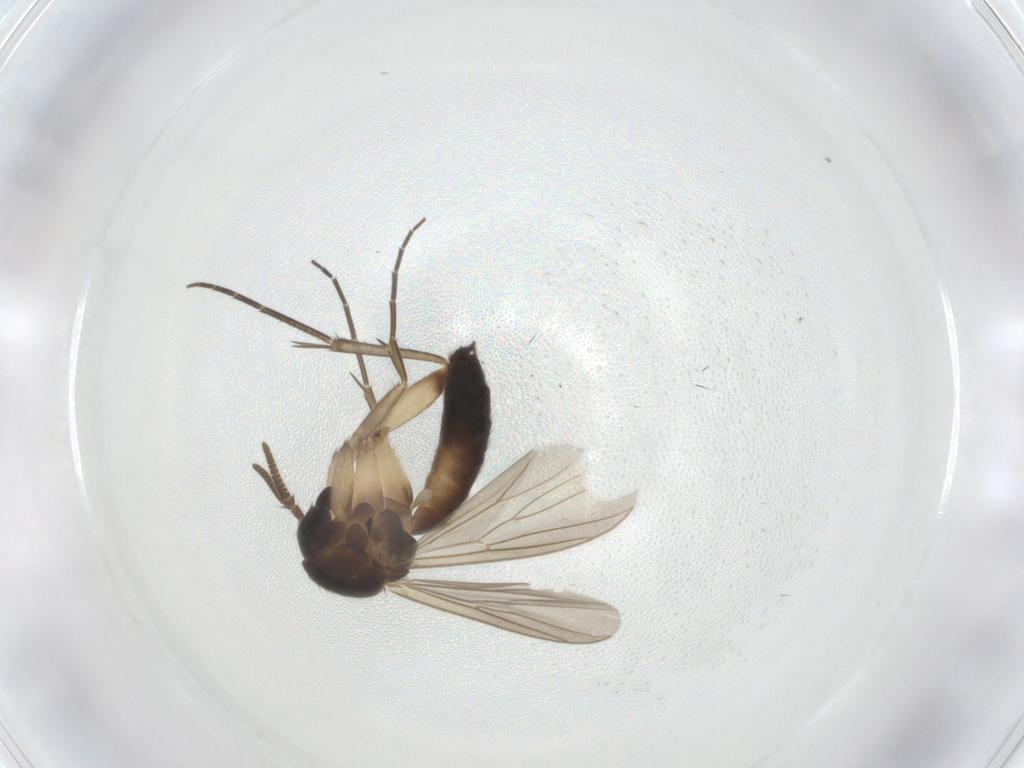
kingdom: Animalia
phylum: Arthropoda
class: Insecta
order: Diptera
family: Mycetophilidae
